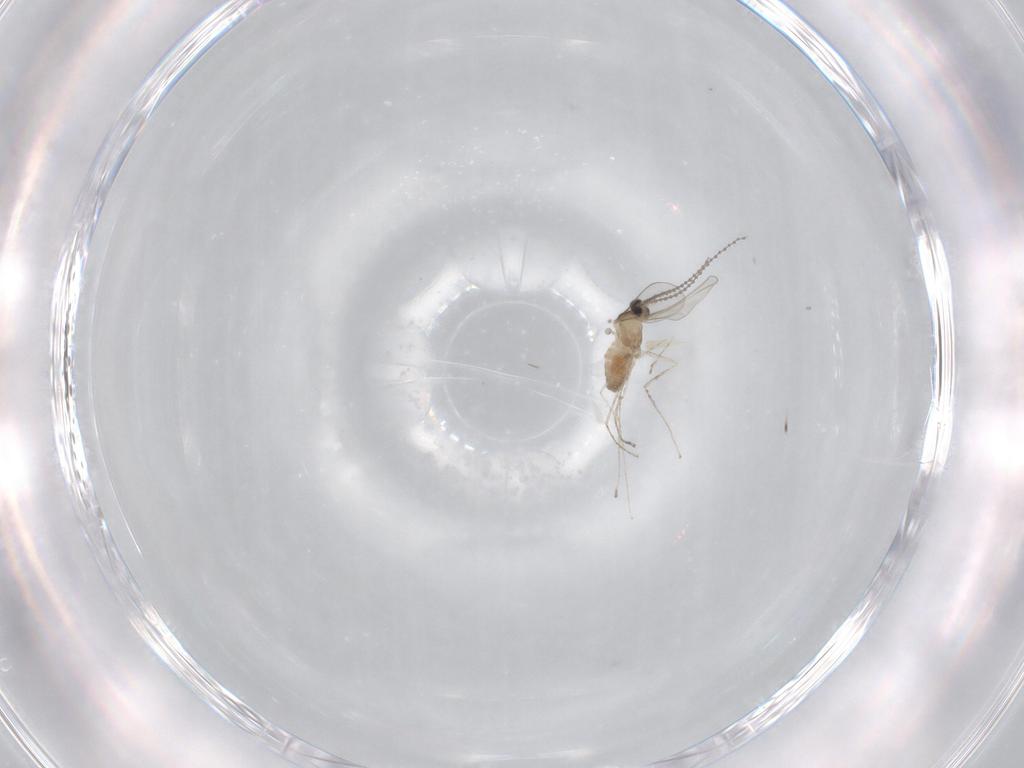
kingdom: Animalia
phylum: Arthropoda
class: Insecta
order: Diptera
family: Cecidomyiidae
